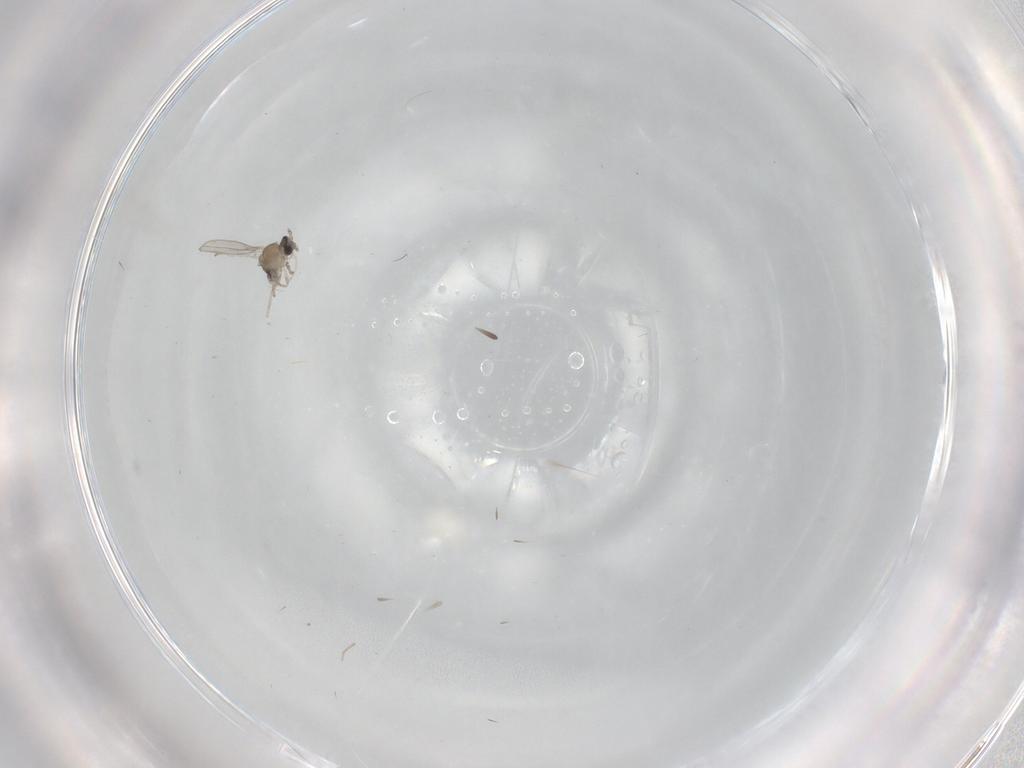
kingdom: Animalia
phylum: Arthropoda
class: Insecta
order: Diptera
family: Cecidomyiidae
